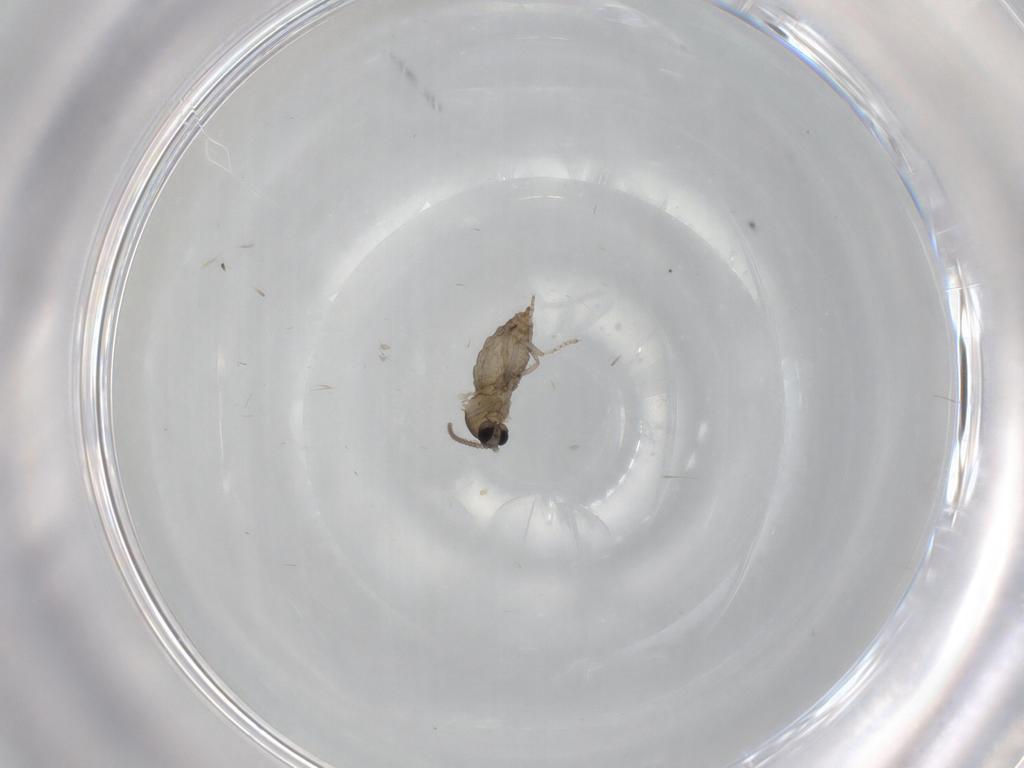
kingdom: Animalia
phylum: Arthropoda
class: Insecta
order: Diptera
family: Cecidomyiidae
